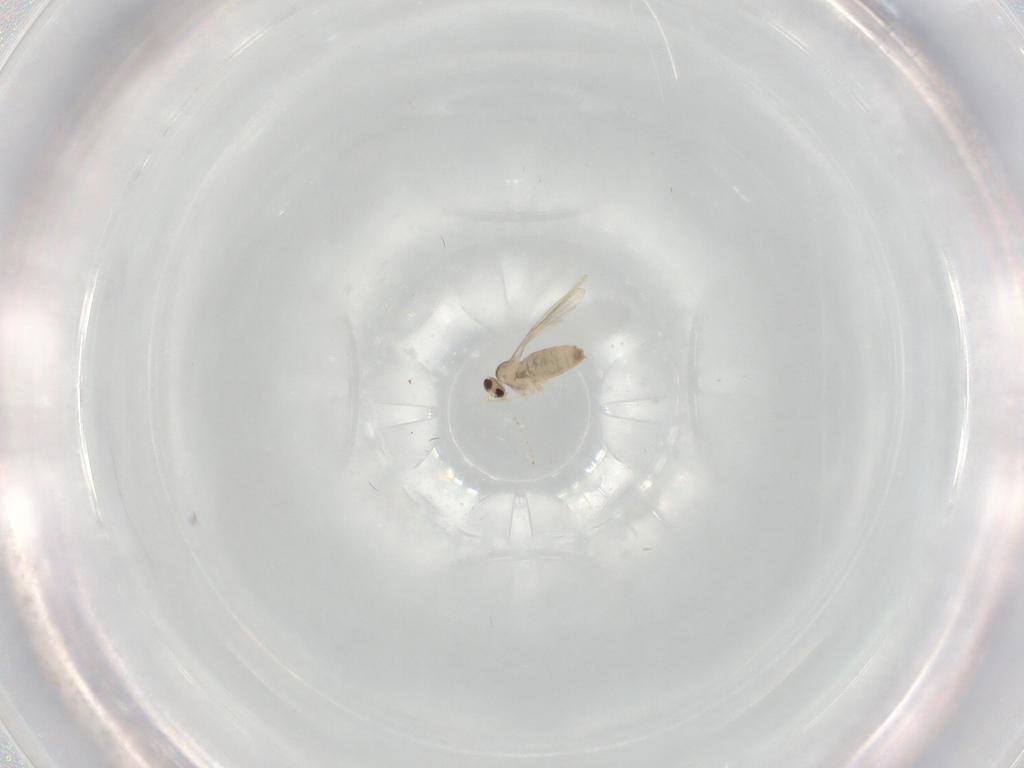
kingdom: Animalia
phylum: Arthropoda
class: Insecta
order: Diptera
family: Cecidomyiidae
